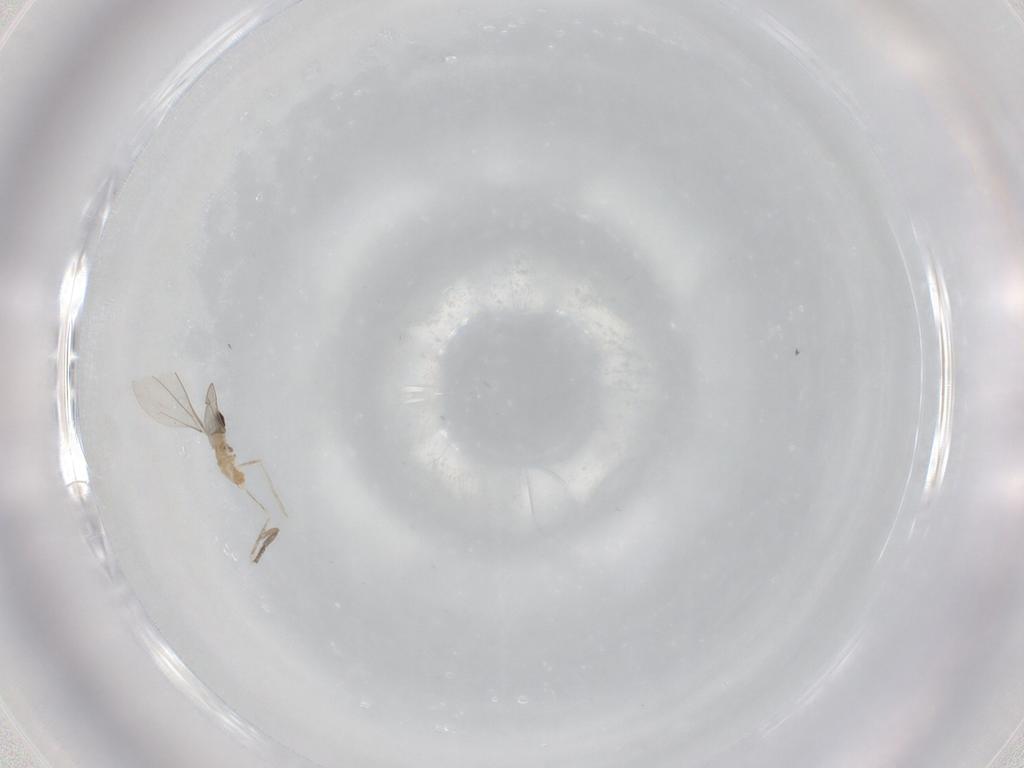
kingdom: Animalia
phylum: Arthropoda
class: Insecta
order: Diptera
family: Cecidomyiidae
